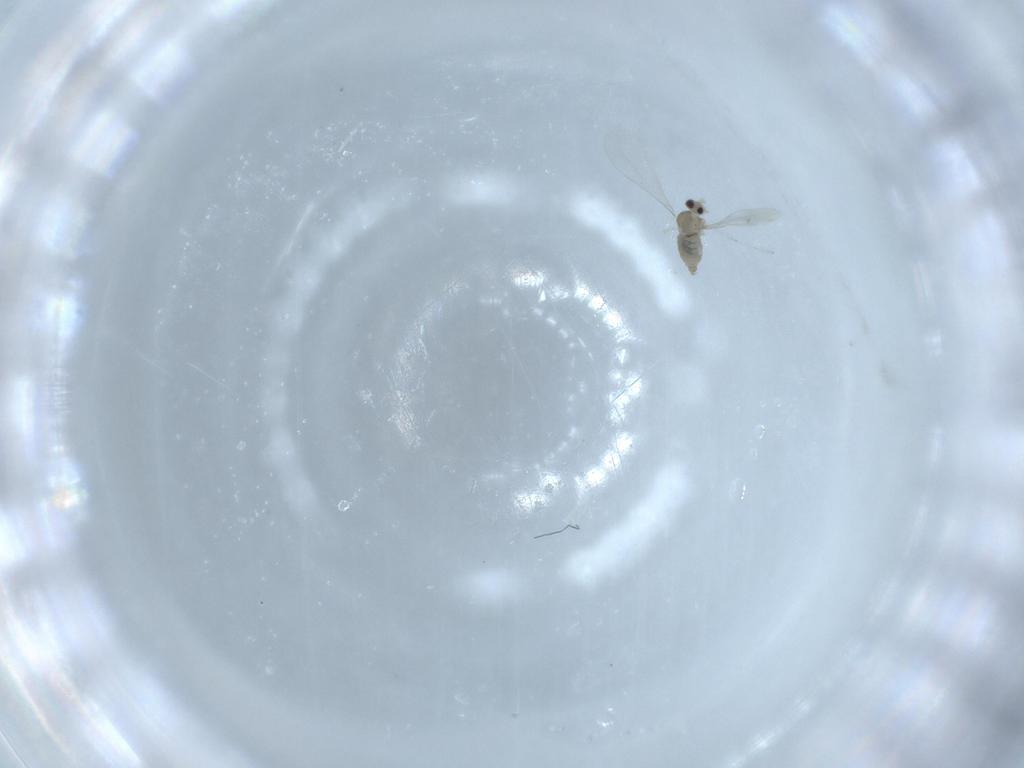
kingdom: Animalia
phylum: Arthropoda
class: Insecta
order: Diptera
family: Cecidomyiidae
